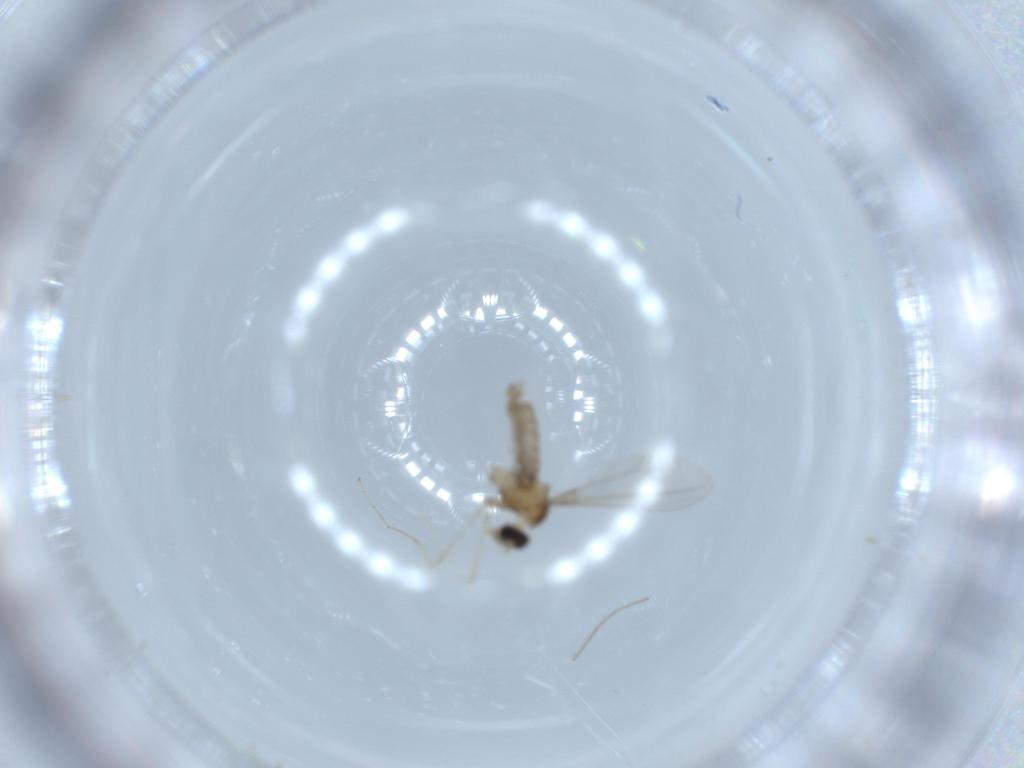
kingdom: Animalia
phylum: Arthropoda
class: Insecta
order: Diptera
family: Cecidomyiidae
